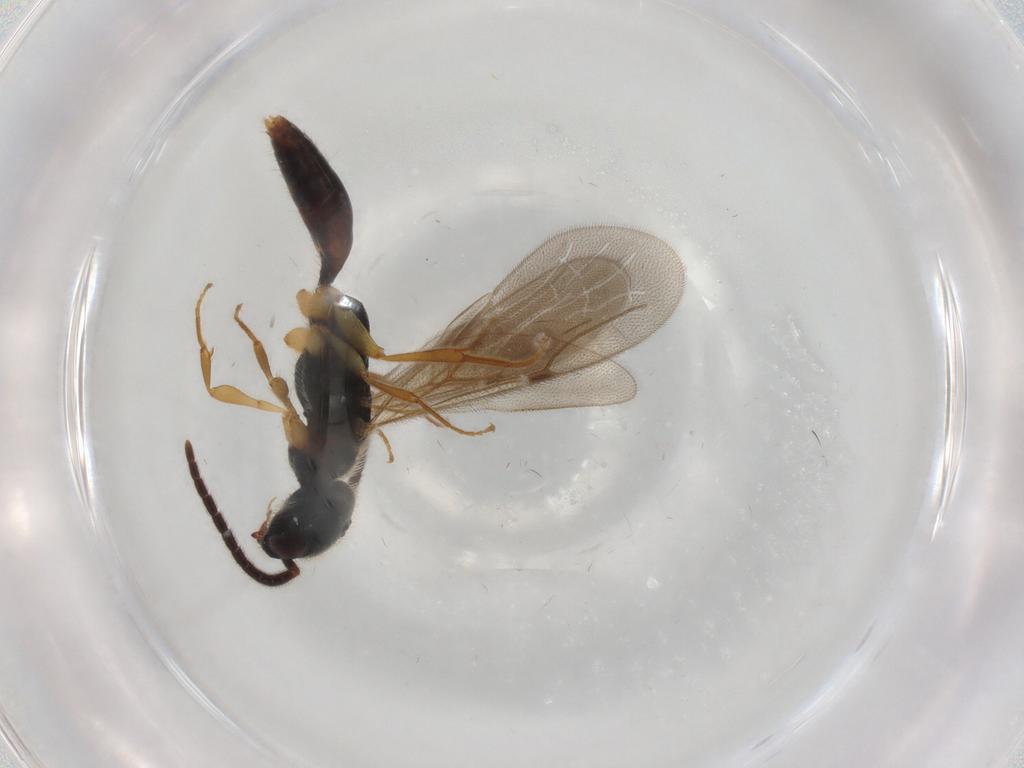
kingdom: Animalia
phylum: Arthropoda
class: Insecta
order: Hymenoptera
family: Bethylidae
